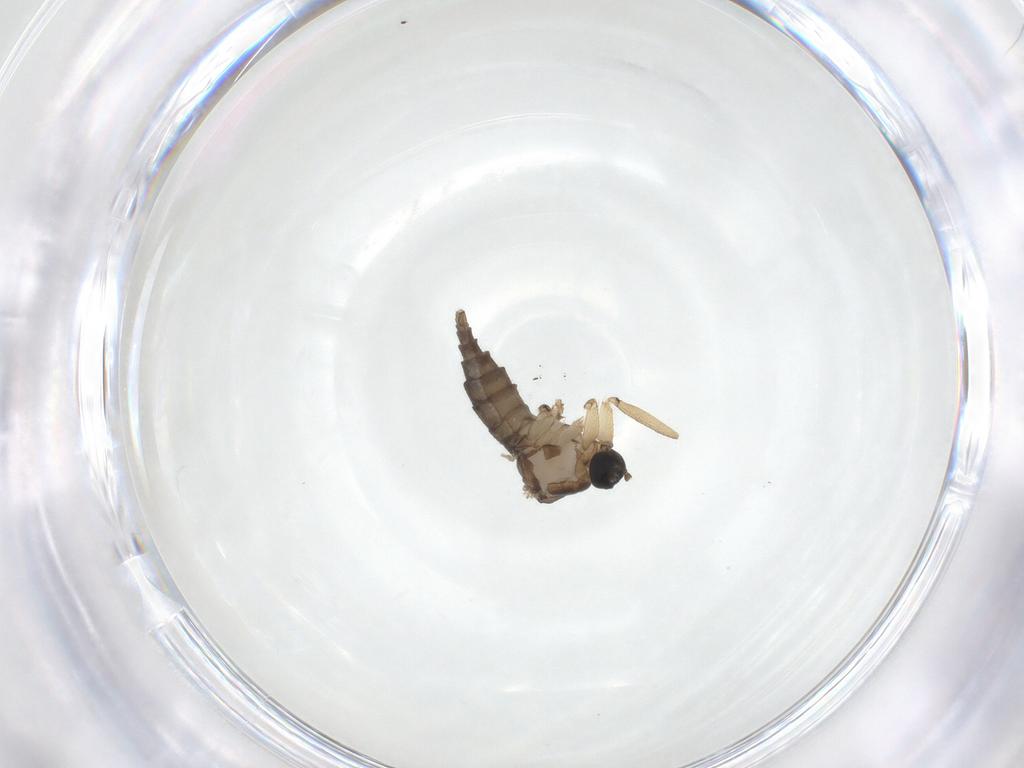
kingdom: Animalia
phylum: Arthropoda
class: Insecta
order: Diptera
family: Sciaridae
